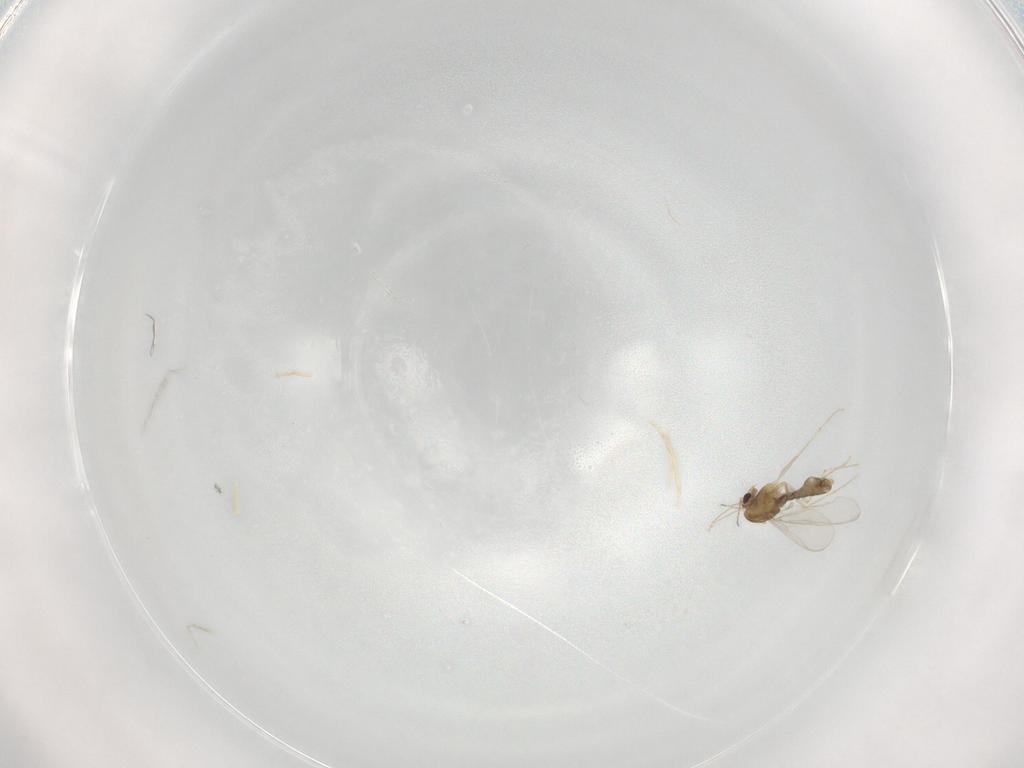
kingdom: Animalia
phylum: Arthropoda
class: Insecta
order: Diptera
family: Chironomidae
